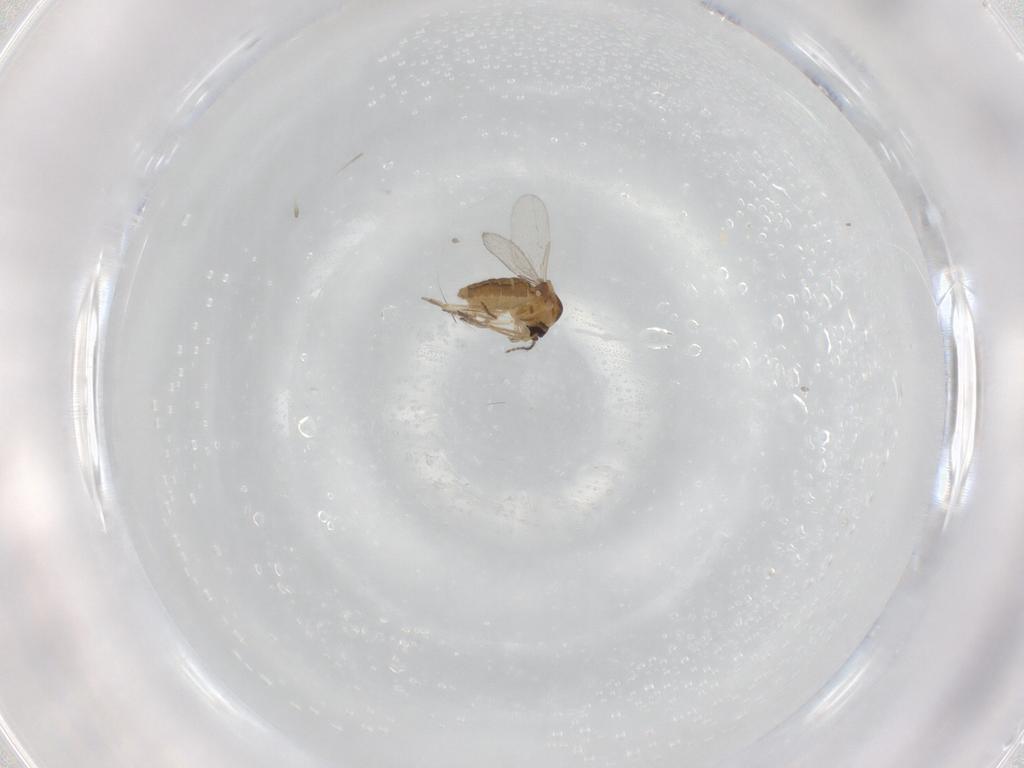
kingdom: Animalia
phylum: Arthropoda
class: Insecta
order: Diptera
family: Ceratopogonidae
